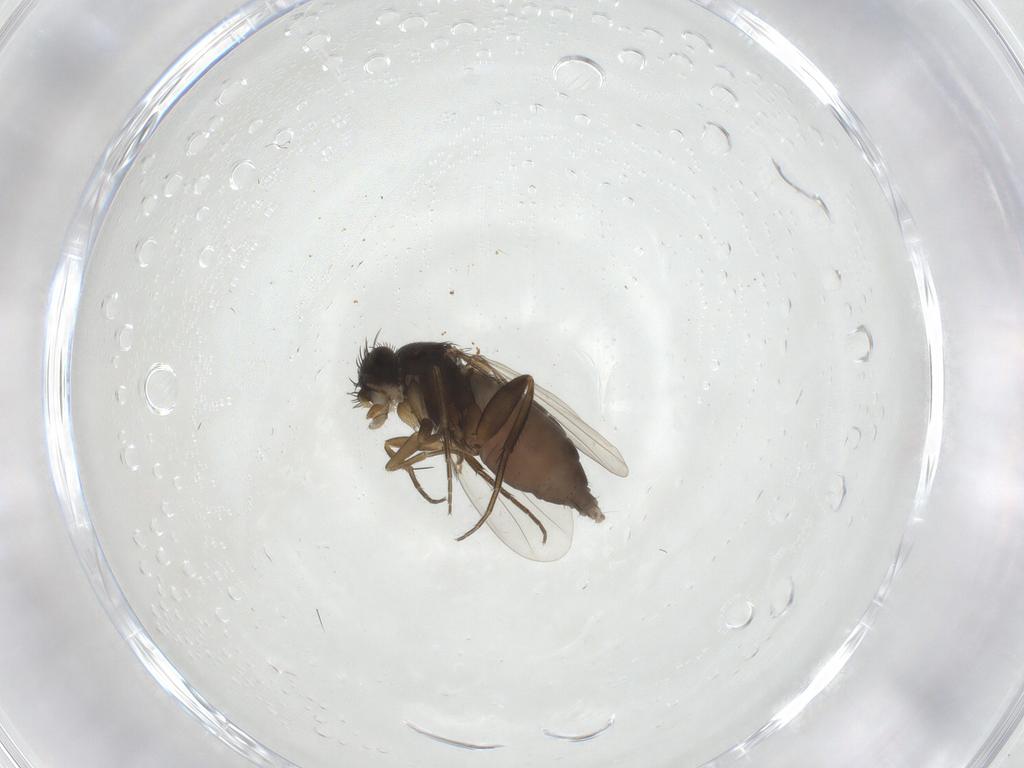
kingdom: Animalia
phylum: Arthropoda
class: Insecta
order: Diptera
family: Phoridae
